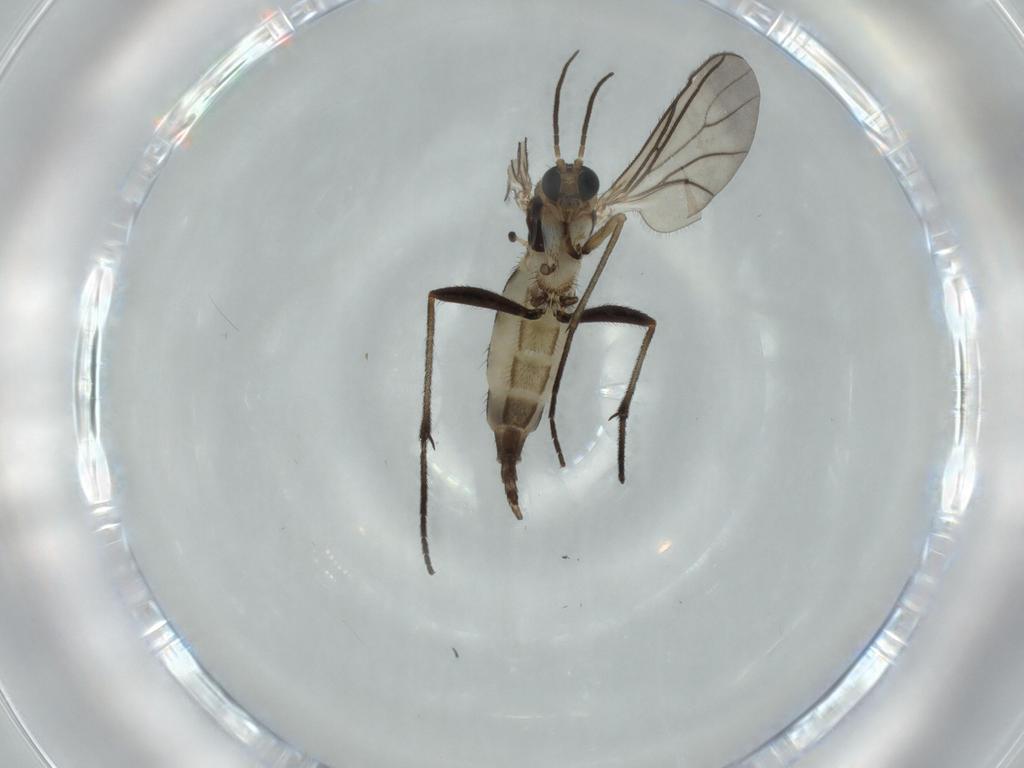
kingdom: Animalia
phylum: Arthropoda
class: Insecta
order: Diptera
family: Sciaridae
